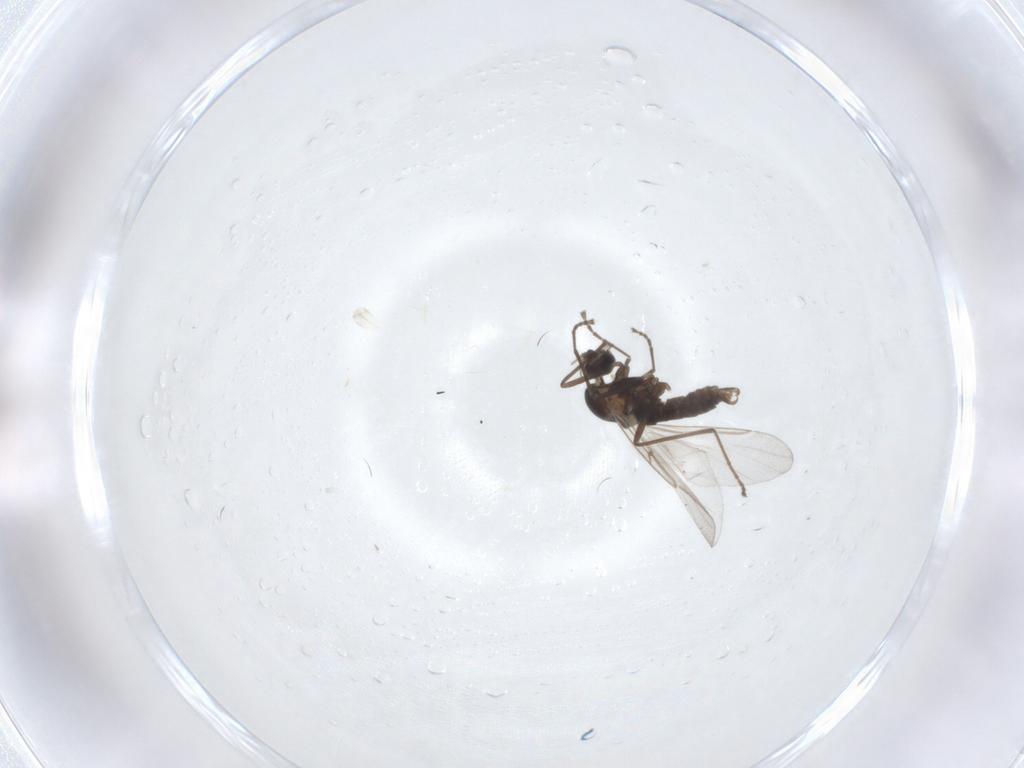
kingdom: Animalia
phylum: Arthropoda
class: Insecta
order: Diptera
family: Cecidomyiidae
